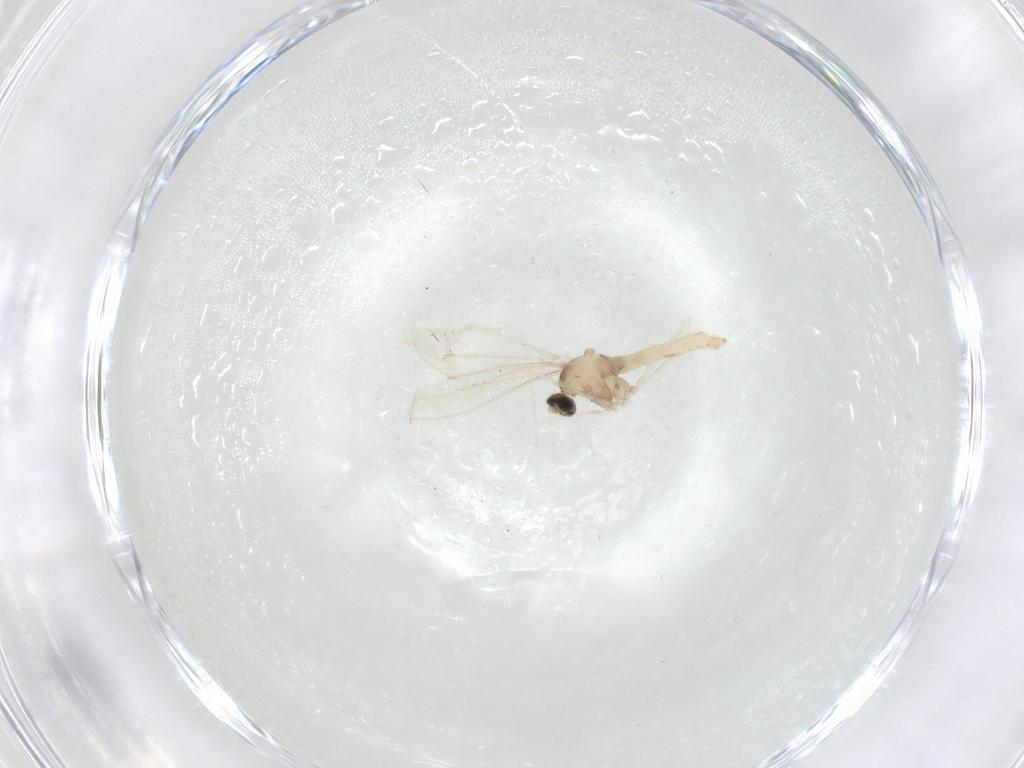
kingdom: Animalia
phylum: Arthropoda
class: Insecta
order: Diptera
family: Cecidomyiidae
